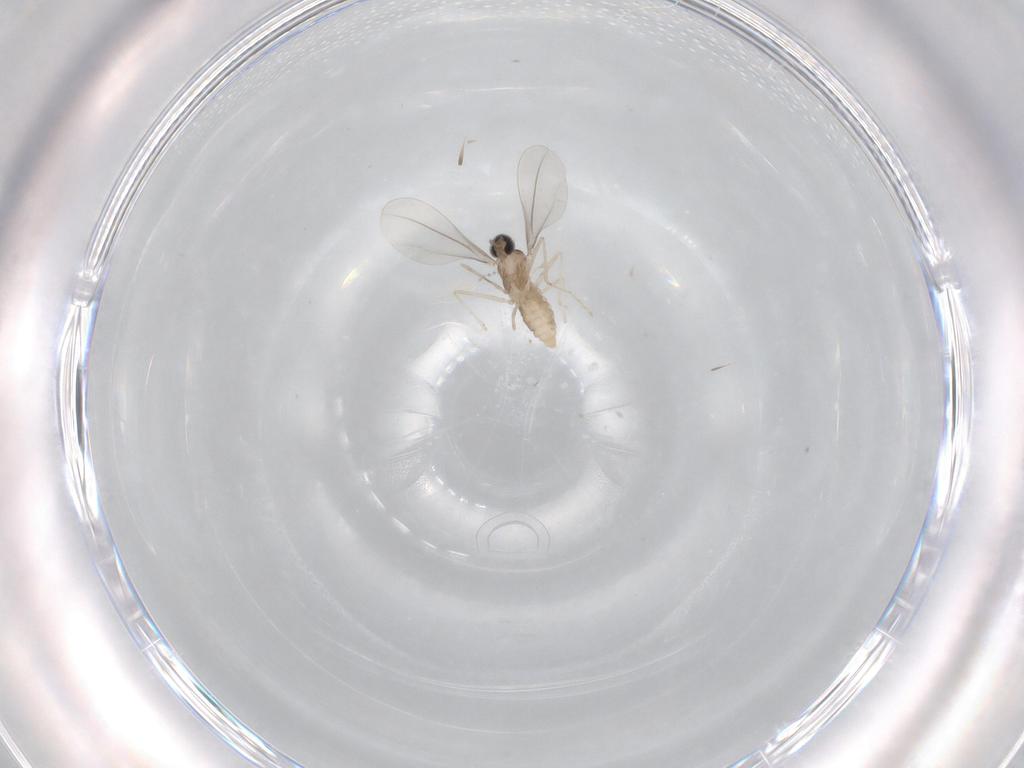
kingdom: Animalia
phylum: Arthropoda
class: Insecta
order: Diptera
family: Cecidomyiidae
